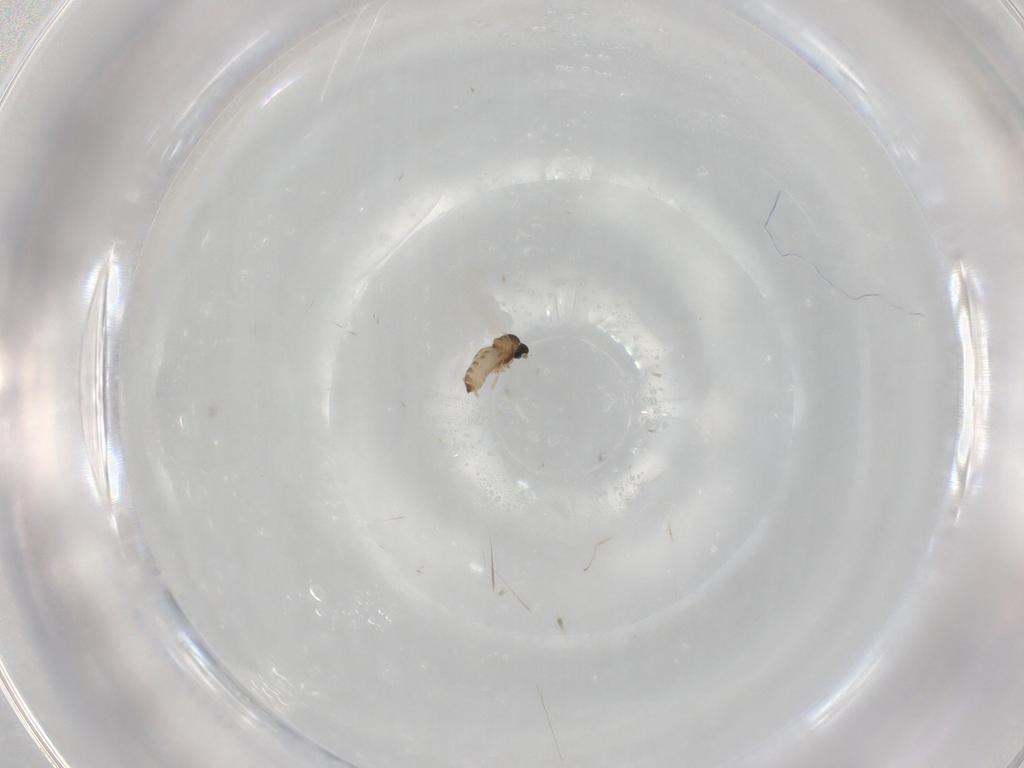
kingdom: Animalia
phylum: Arthropoda
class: Insecta
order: Diptera
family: Cecidomyiidae
